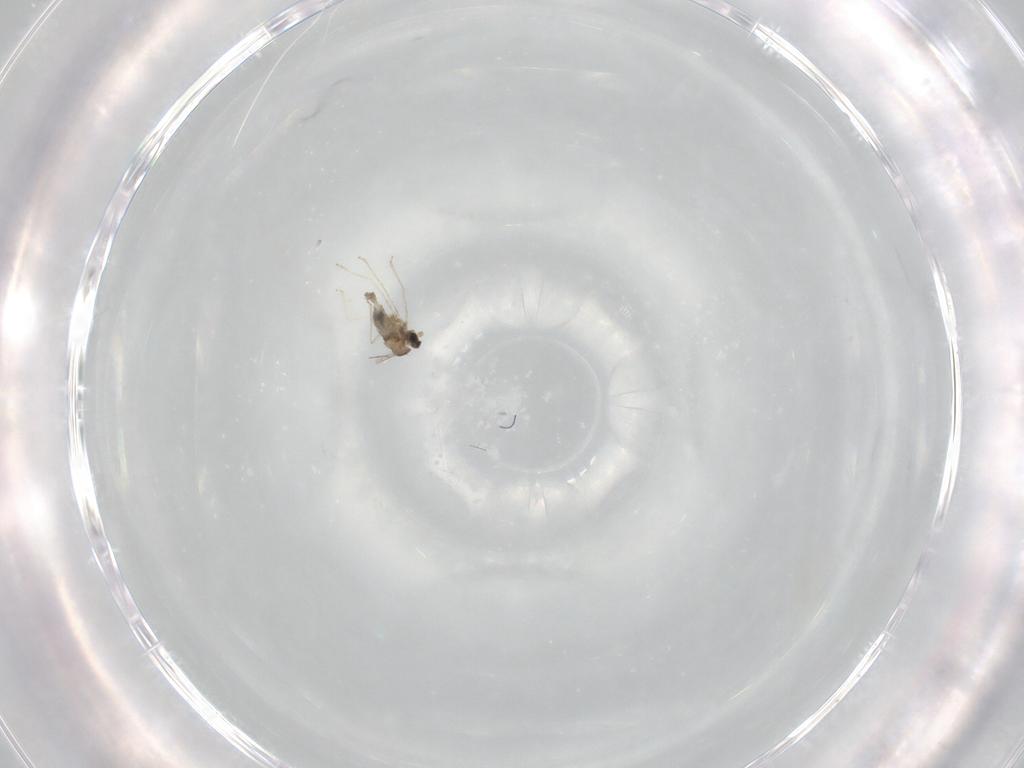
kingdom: Animalia
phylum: Arthropoda
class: Insecta
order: Diptera
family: Cecidomyiidae
